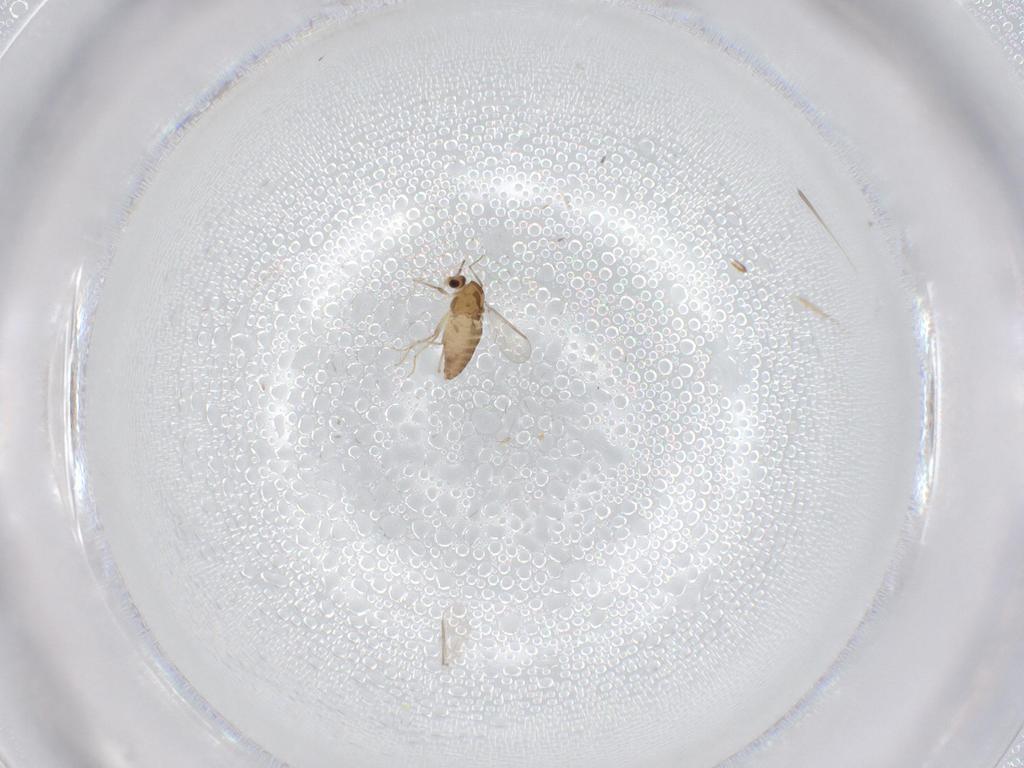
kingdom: Animalia
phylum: Arthropoda
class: Insecta
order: Diptera
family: Chironomidae
